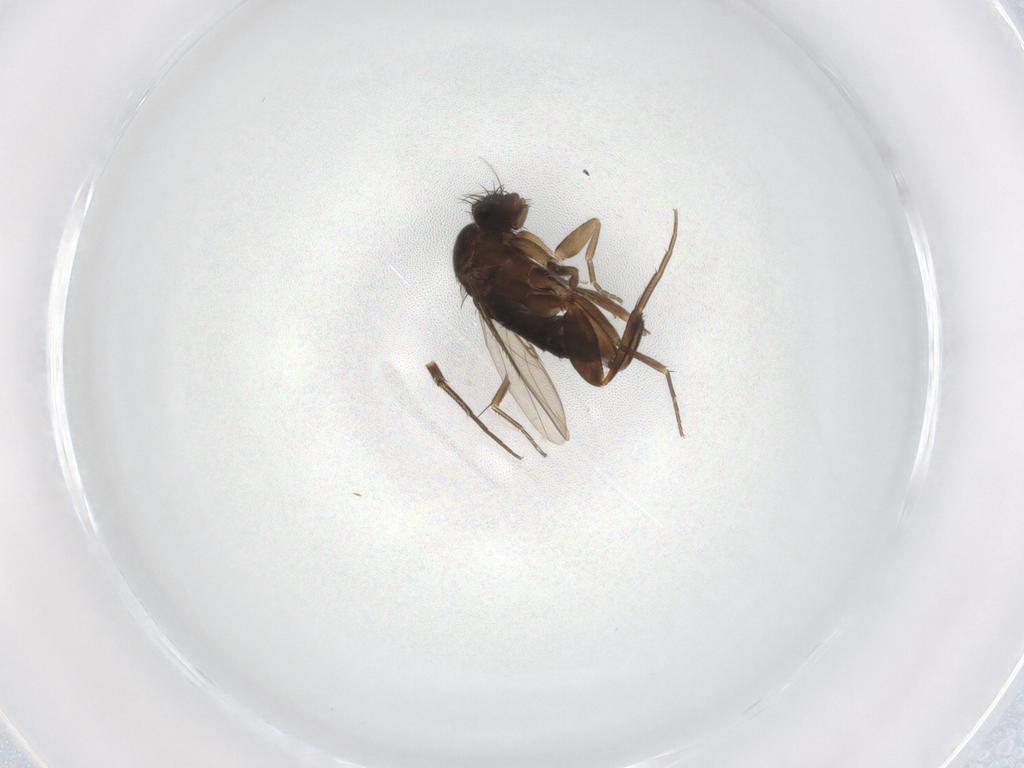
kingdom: Animalia
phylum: Arthropoda
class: Insecta
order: Diptera
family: Phoridae
